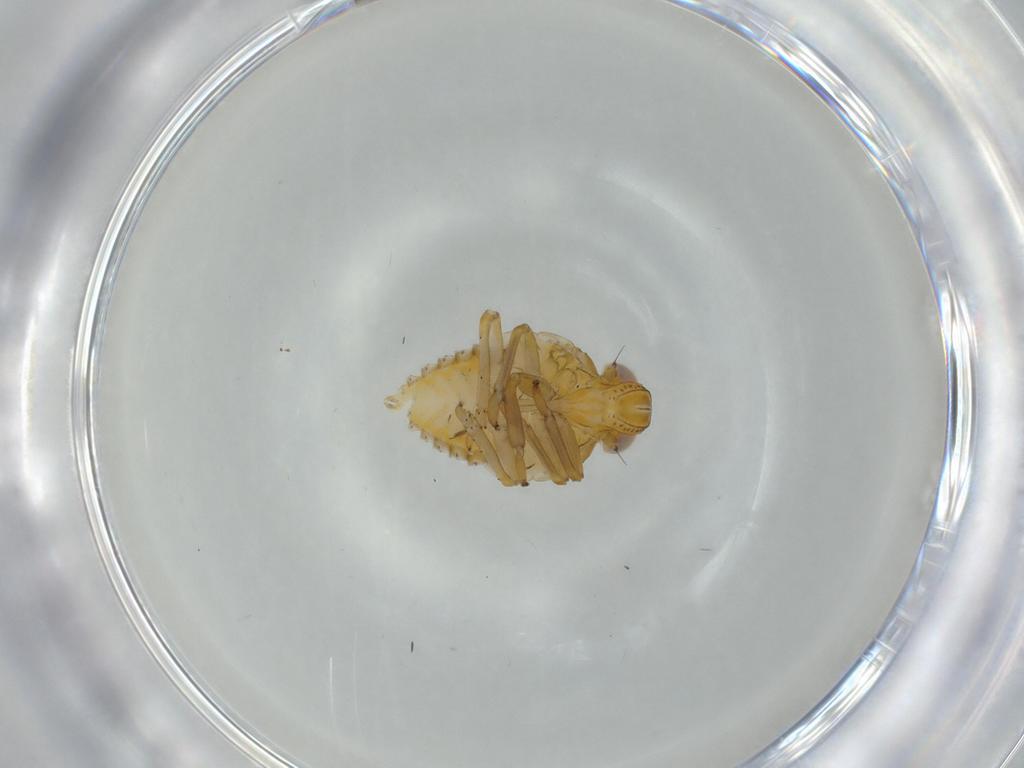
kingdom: Animalia
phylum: Arthropoda
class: Insecta
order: Hemiptera
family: Issidae
